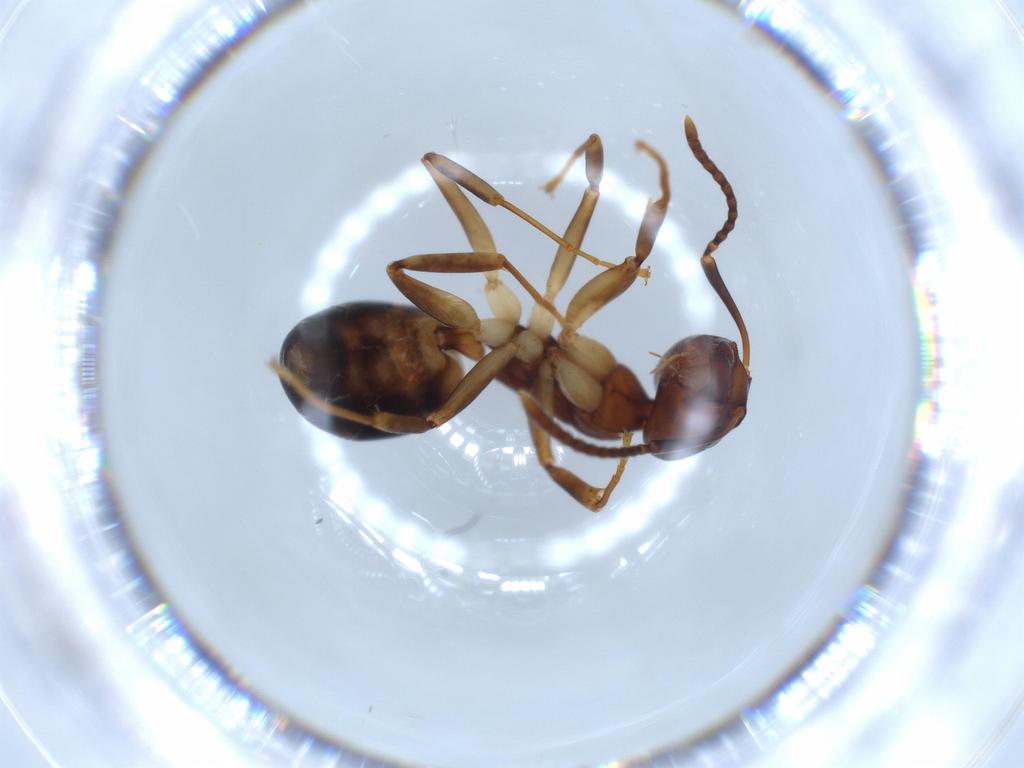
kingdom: Animalia
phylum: Arthropoda
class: Insecta
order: Hymenoptera
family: Formicidae
